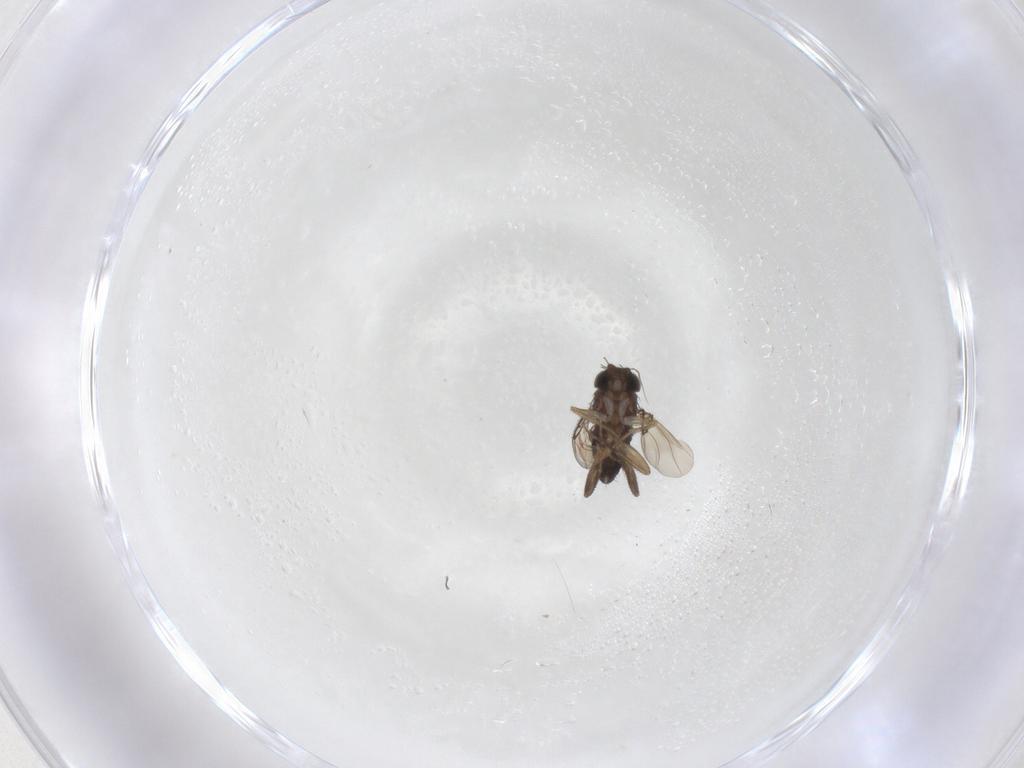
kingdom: Animalia
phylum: Arthropoda
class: Insecta
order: Diptera
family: Phoridae
